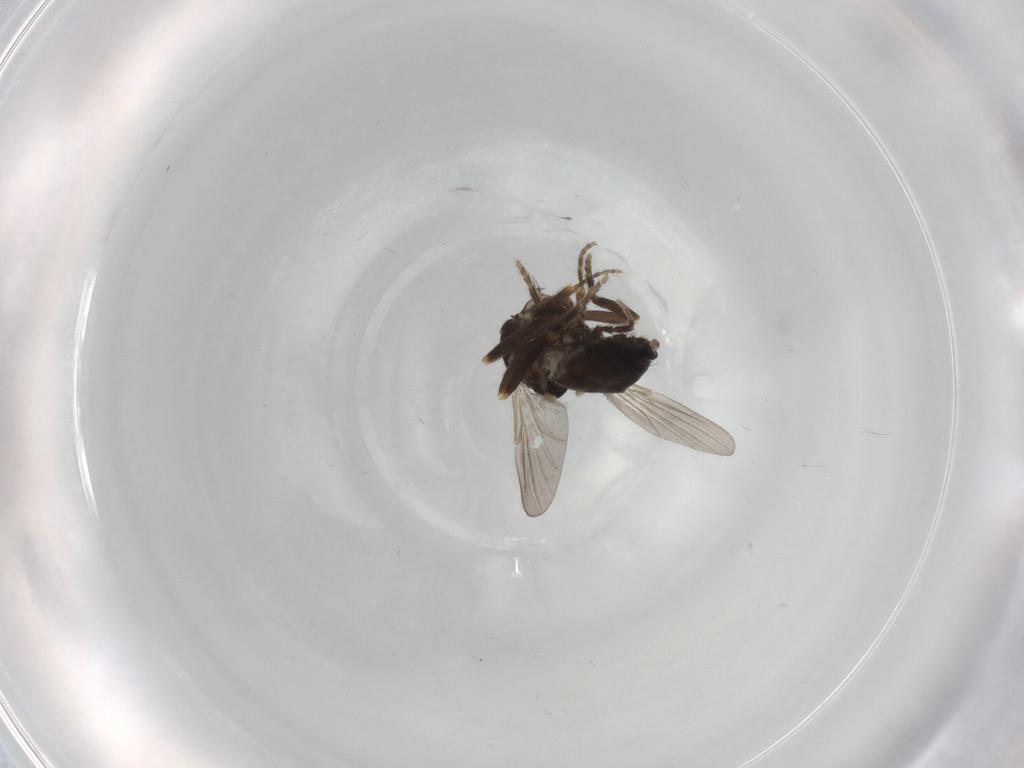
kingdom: Animalia
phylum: Arthropoda
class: Insecta
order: Diptera
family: Ceratopogonidae
